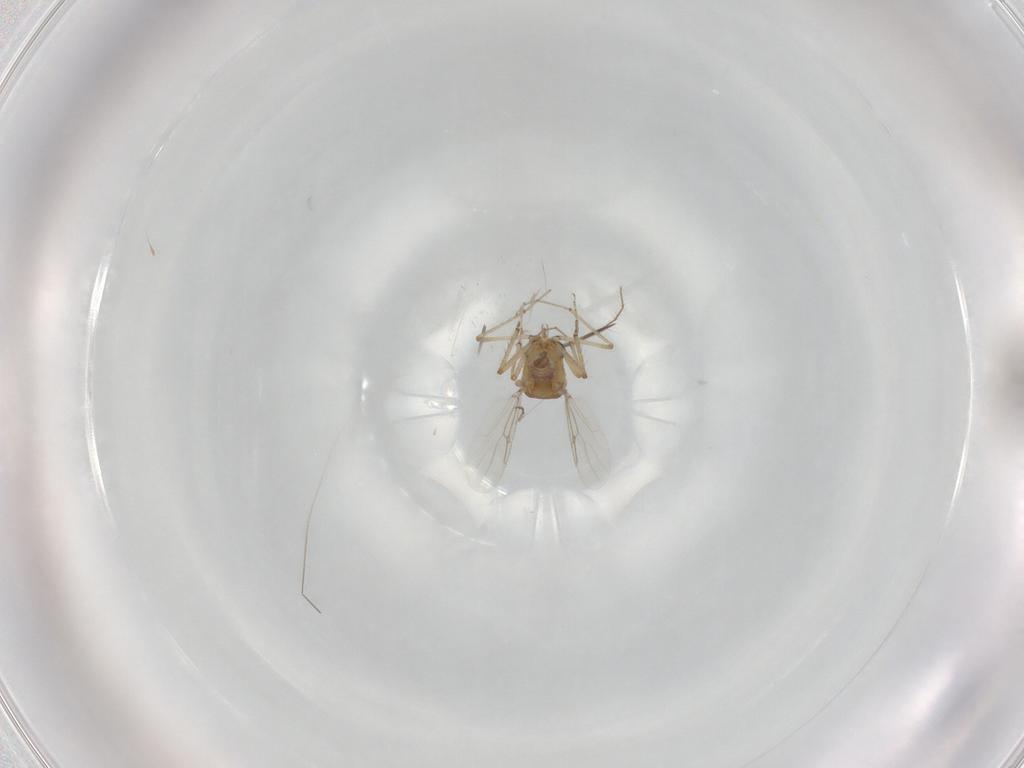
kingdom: Animalia
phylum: Arthropoda
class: Insecta
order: Diptera
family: Ceratopogonidae
